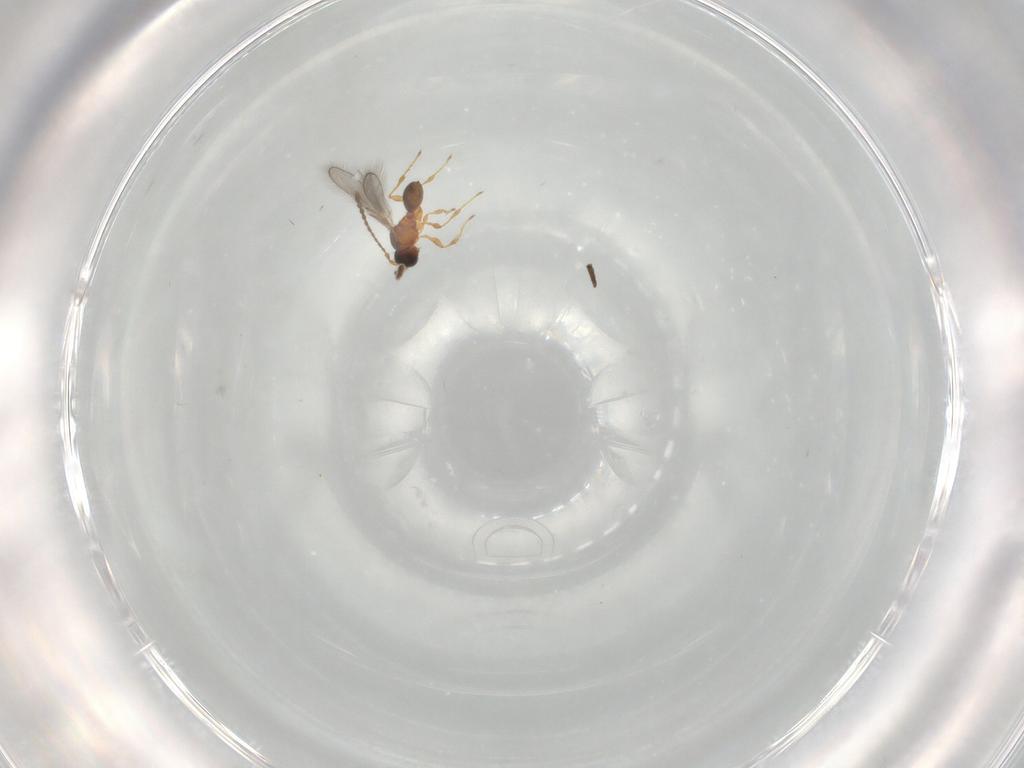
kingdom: Animalia
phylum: Arthropoda
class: Insecta
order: Hymenoptera
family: Diapriidae
